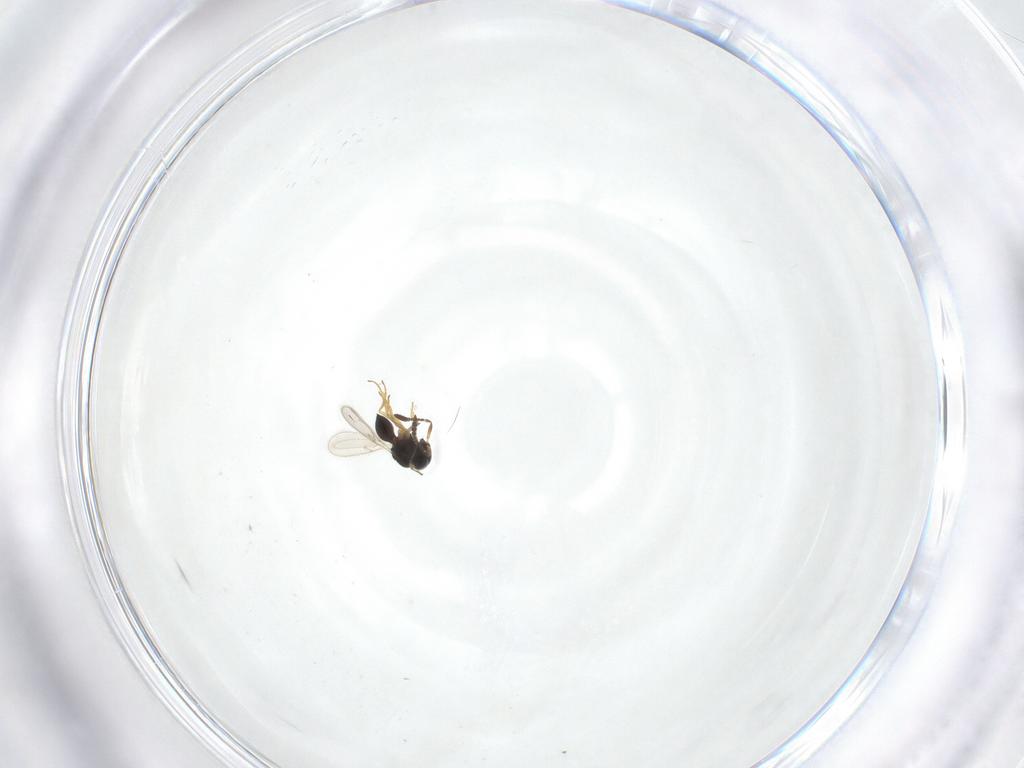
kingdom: Animalia
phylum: Arthropoda
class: Insecta
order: Hymenoptera
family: Scelionidae
